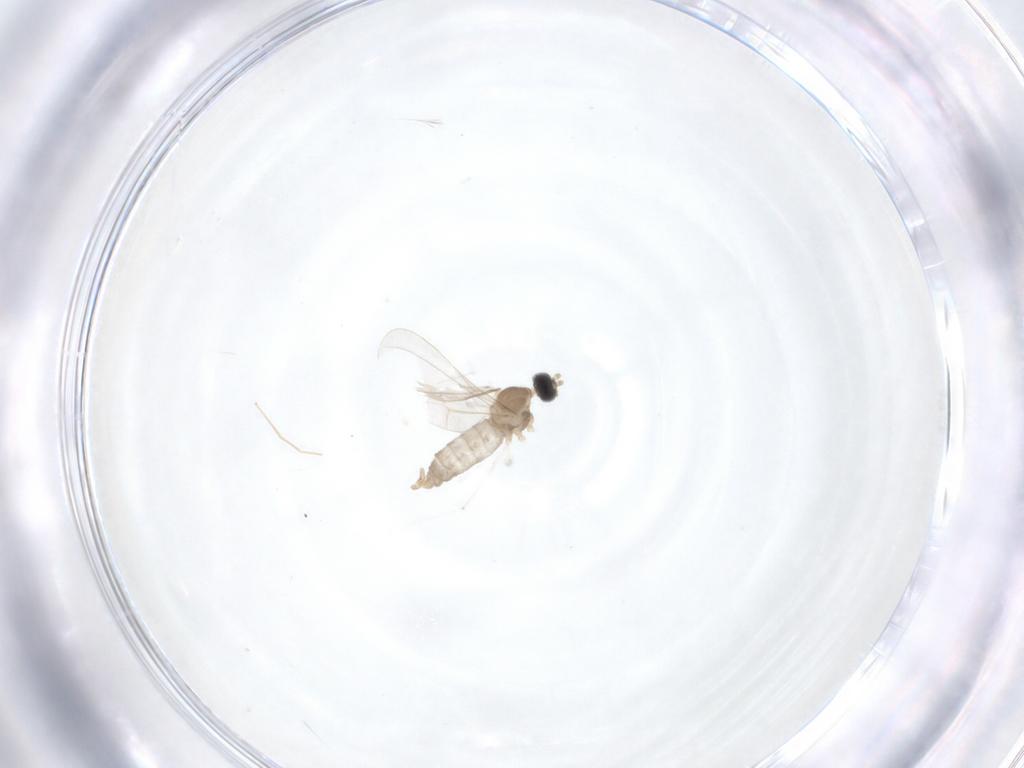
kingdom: Animalia
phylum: Arthropoda
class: Insecta
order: Diptera
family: Cecidomyiidae
